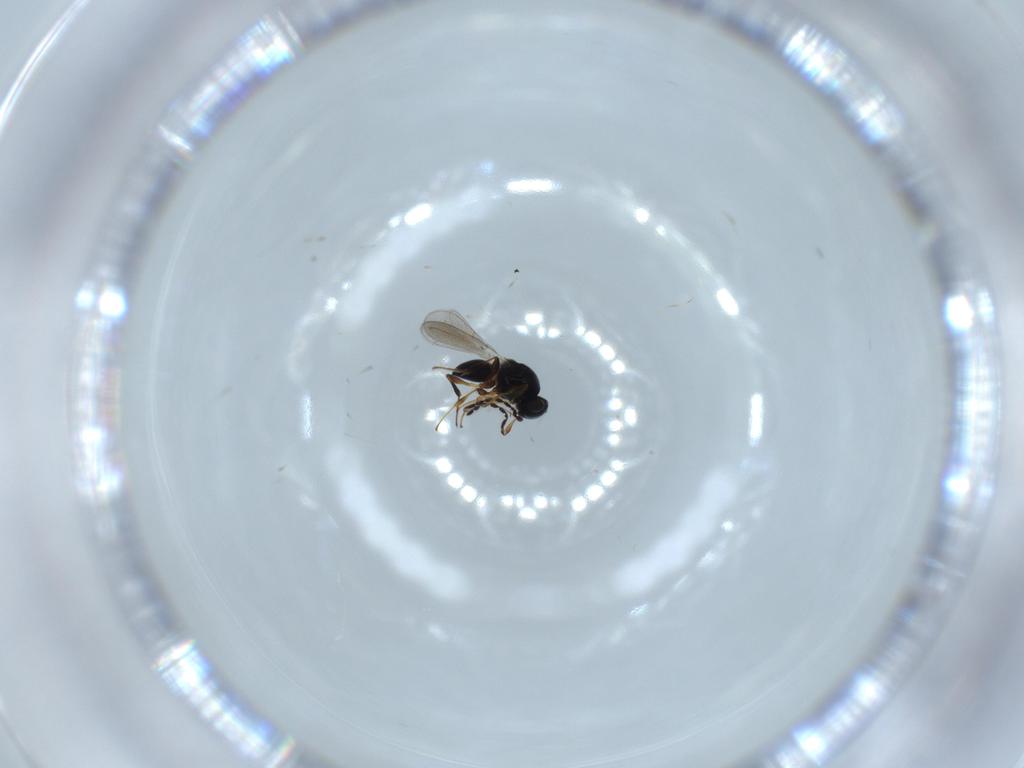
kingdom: Animalia
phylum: Arthropoda
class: Insecta
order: Hymenoptera
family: Platygastridae
